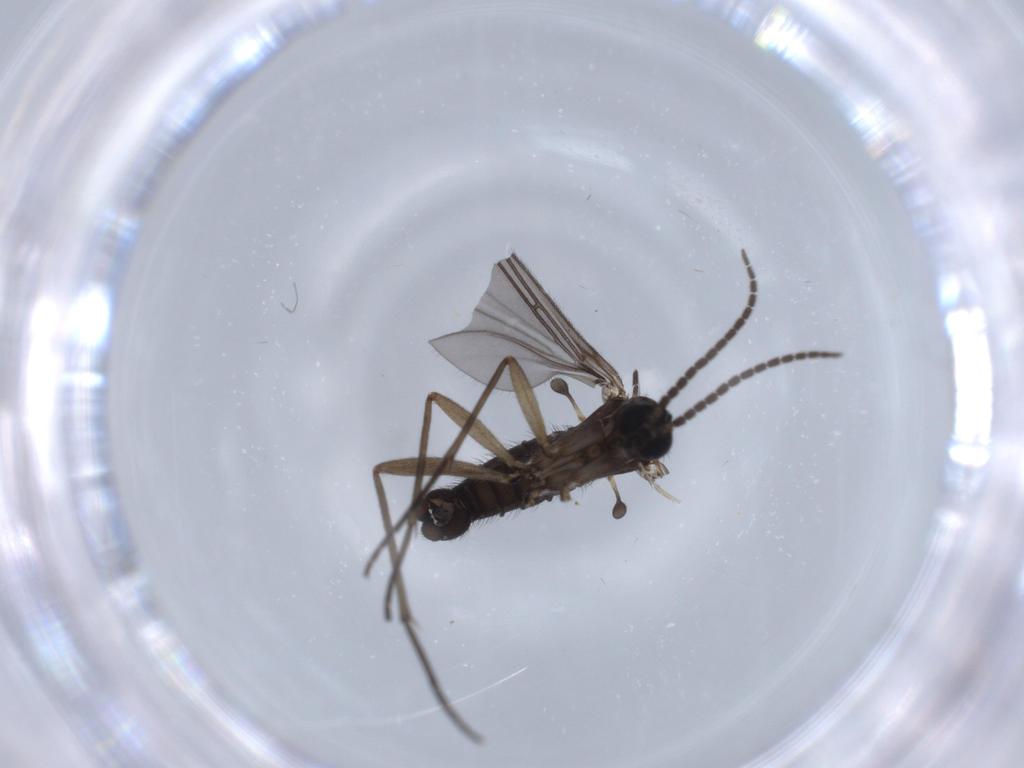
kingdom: Animalia
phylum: Arthropoda
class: Insecta
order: Diptera
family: Sciaridae
